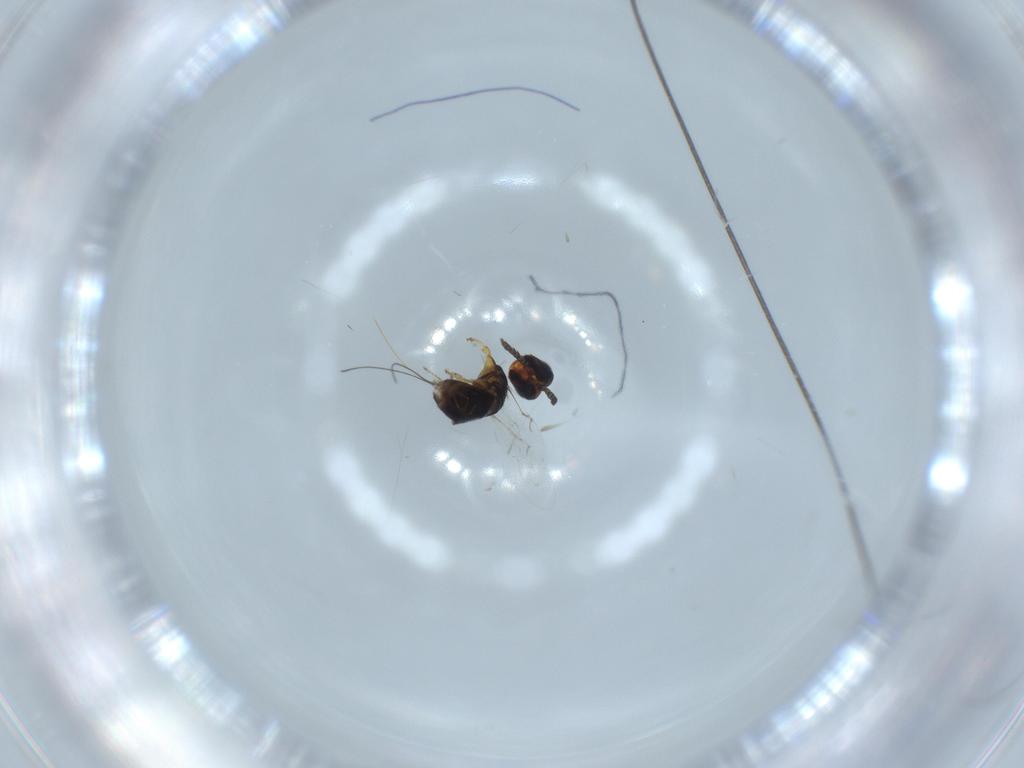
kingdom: Animalia
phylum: Arthropoda
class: Insecta
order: Hymenoptera
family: Agaonidae
